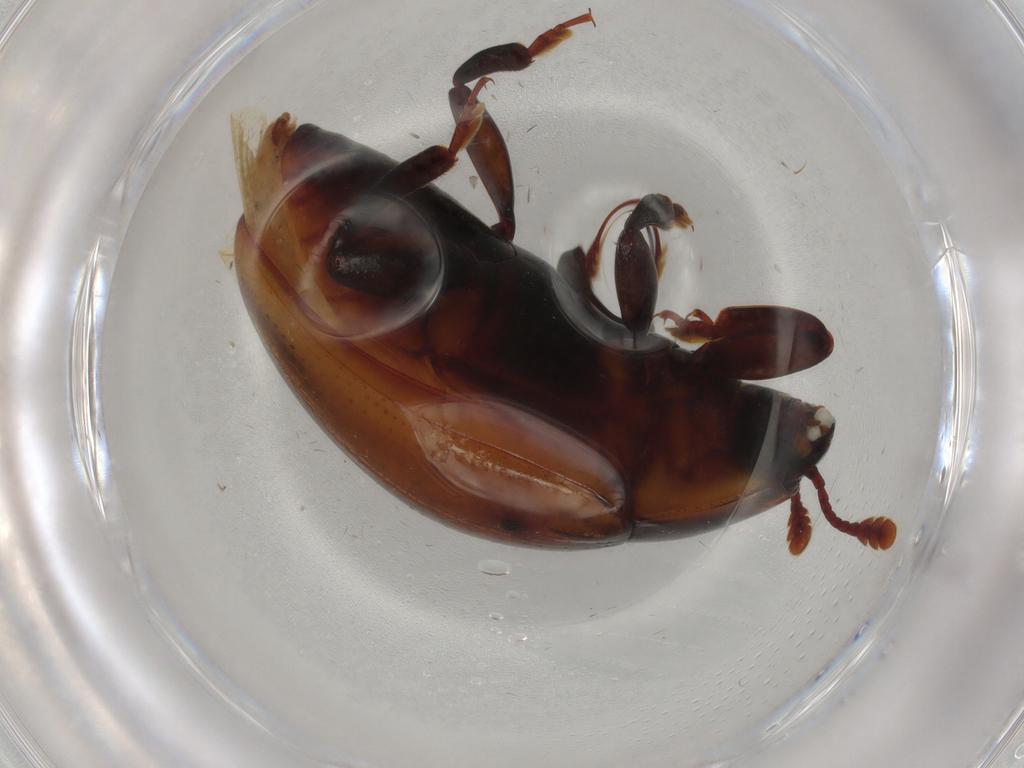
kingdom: Animalia
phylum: Arthropoda
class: Insecta
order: Coleoptera
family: Zopheridae
